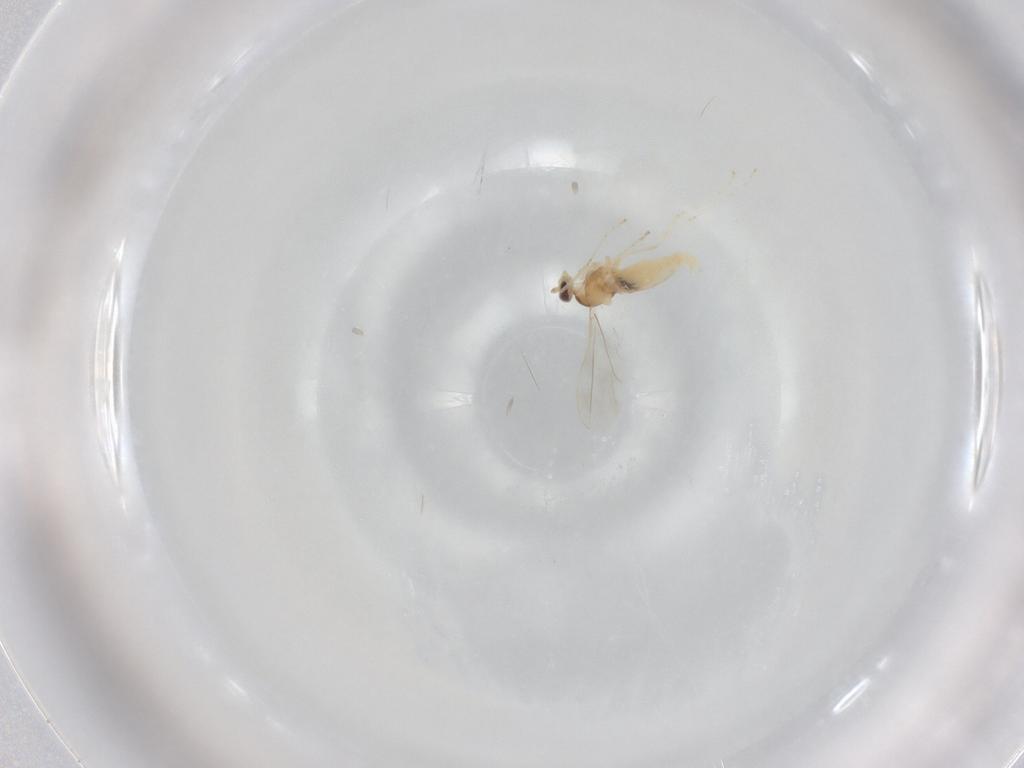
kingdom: Animalia
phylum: Arthropoda
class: Insecta
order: Diptera
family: Cecidomyiidae
